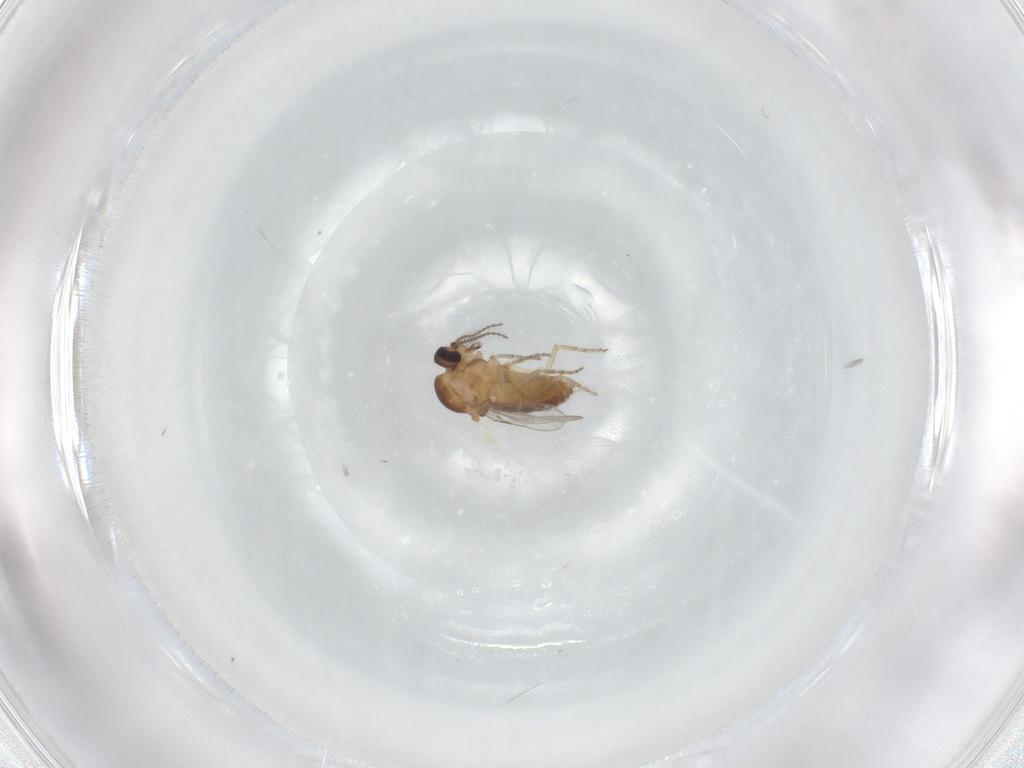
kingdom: Animalia
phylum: Arthropoda
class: Insecta
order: Diptera
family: Ceratopogonidae
